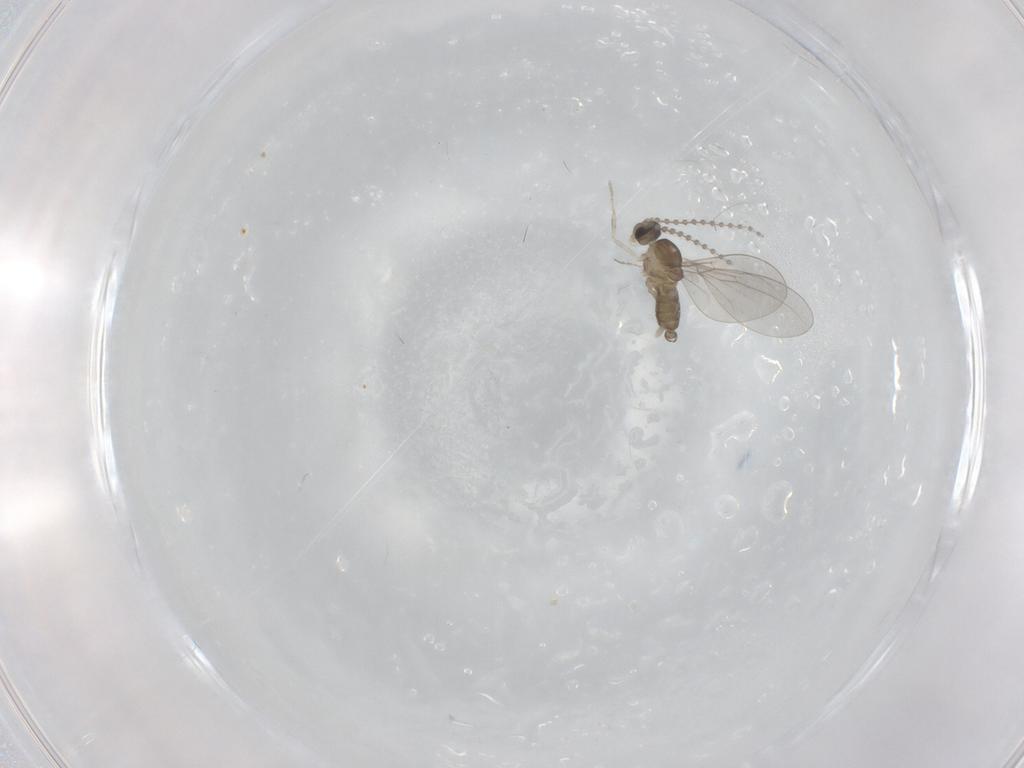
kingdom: Animalia
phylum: Arthropoda
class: Insecta
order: Diptera
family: Cecidomyiidae
